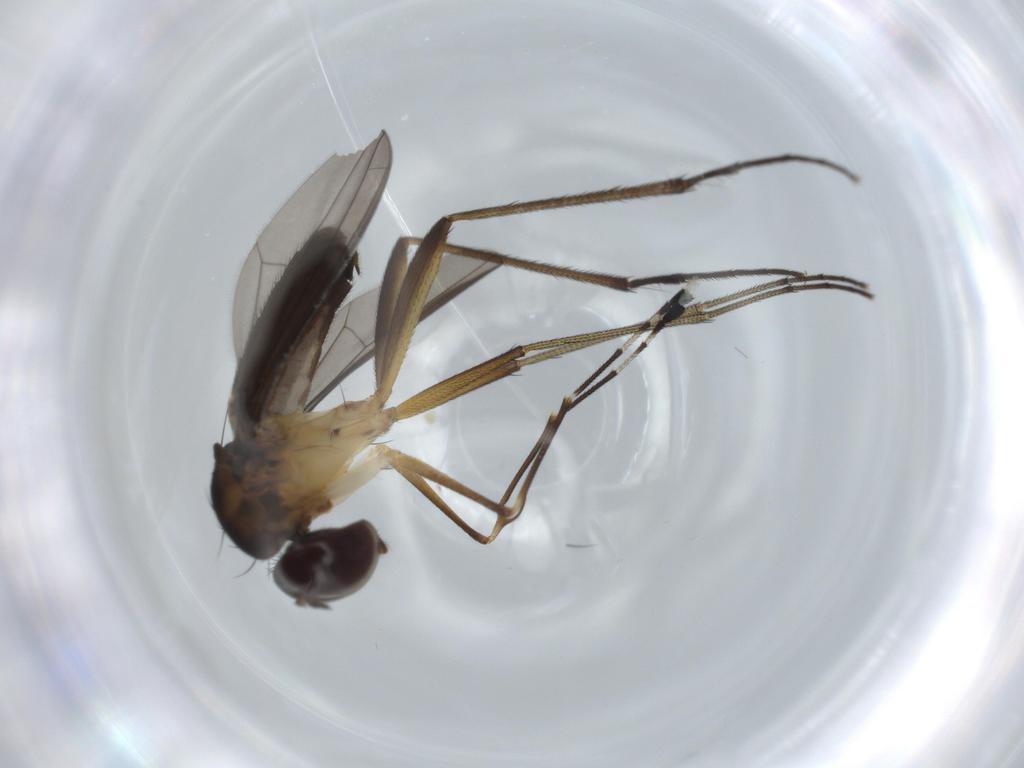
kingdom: Animalia
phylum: Arthropoda
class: Insecta
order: Diptera
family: Dolichopodidae
